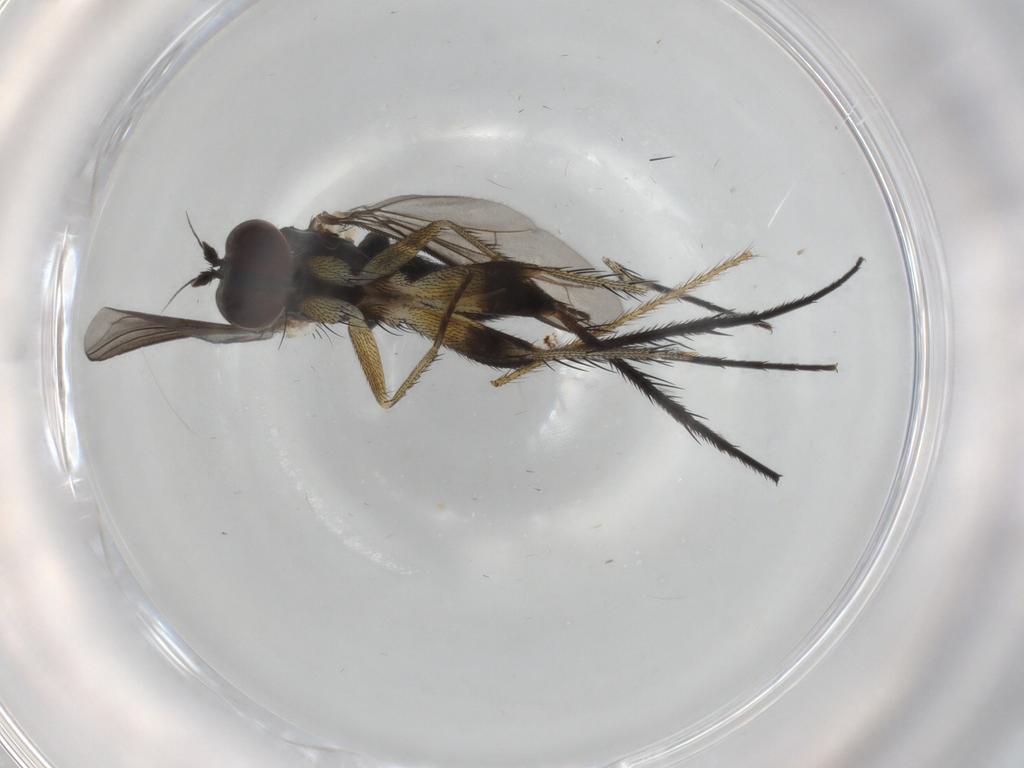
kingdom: Animalia
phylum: Arthropoda
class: Insecta
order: Diptera
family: Dolichopodidae
